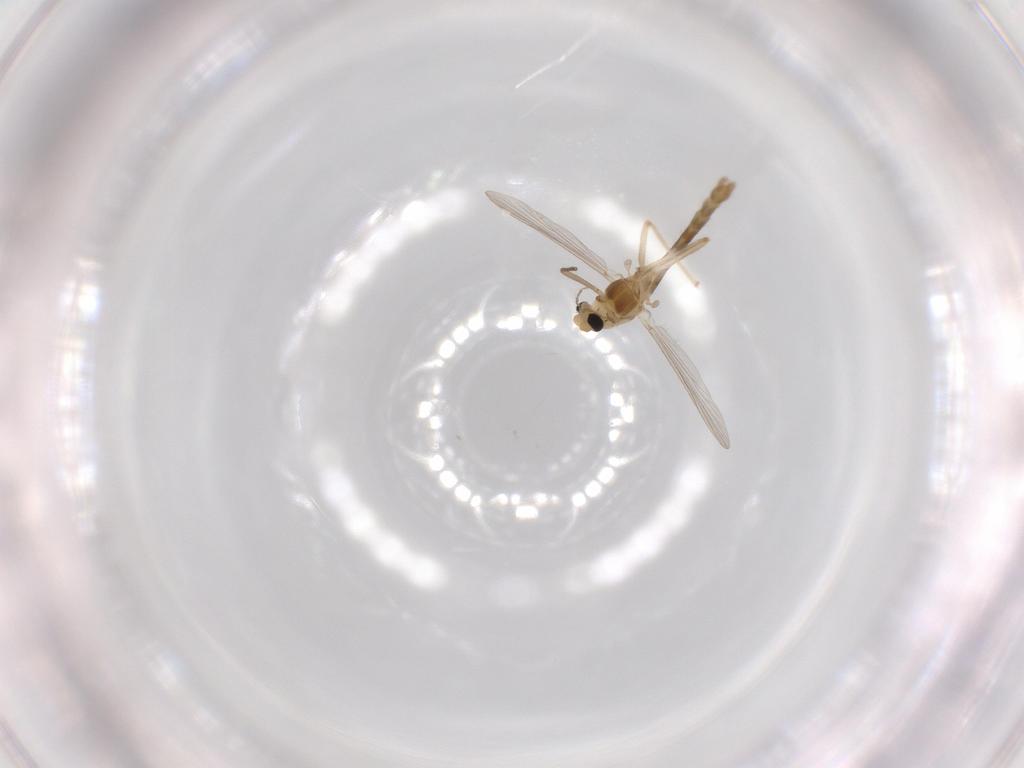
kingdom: Animalia
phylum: Arthropoda
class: Insecta
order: Diptera
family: Chironomidae
